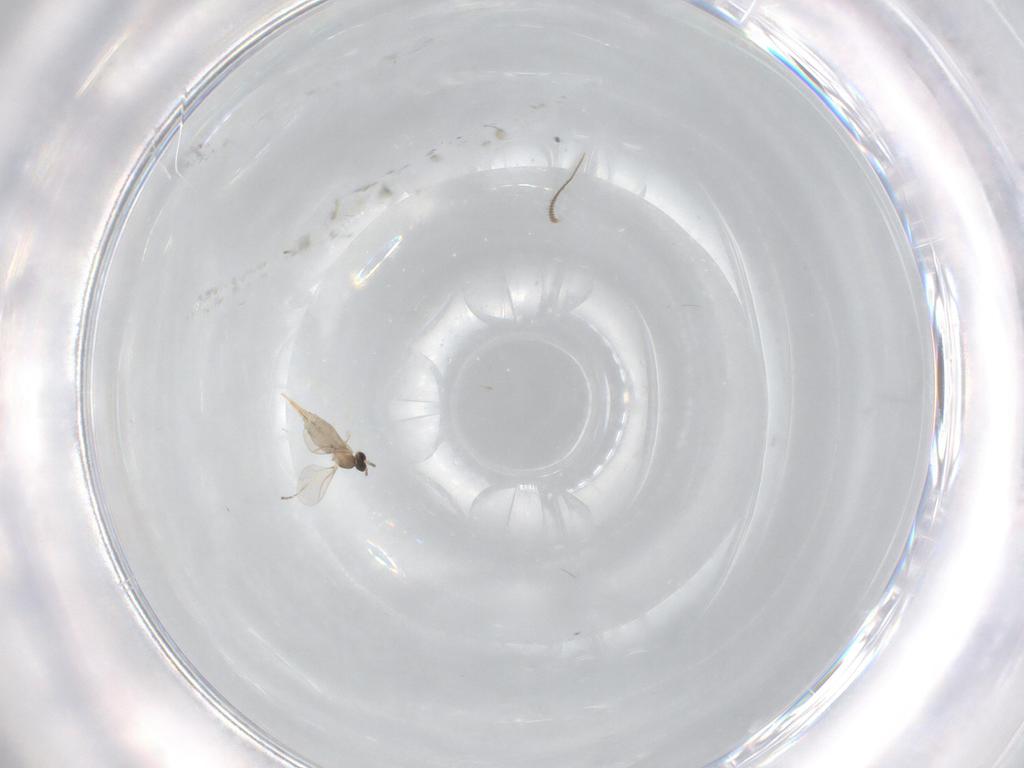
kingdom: Animalia
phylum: Arthropoda
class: Insecta
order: Diptera
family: Cecidomyiidae
